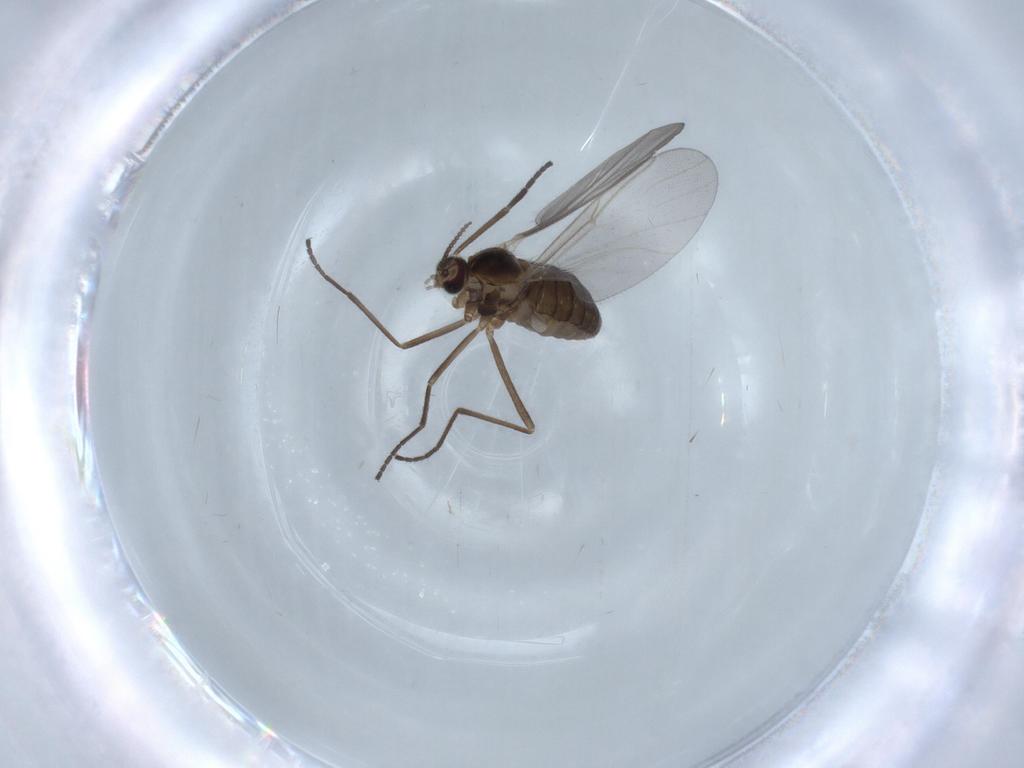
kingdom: Animalia
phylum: Arthropoda
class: Insecta
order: Diptera
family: Cecidomyiidae
